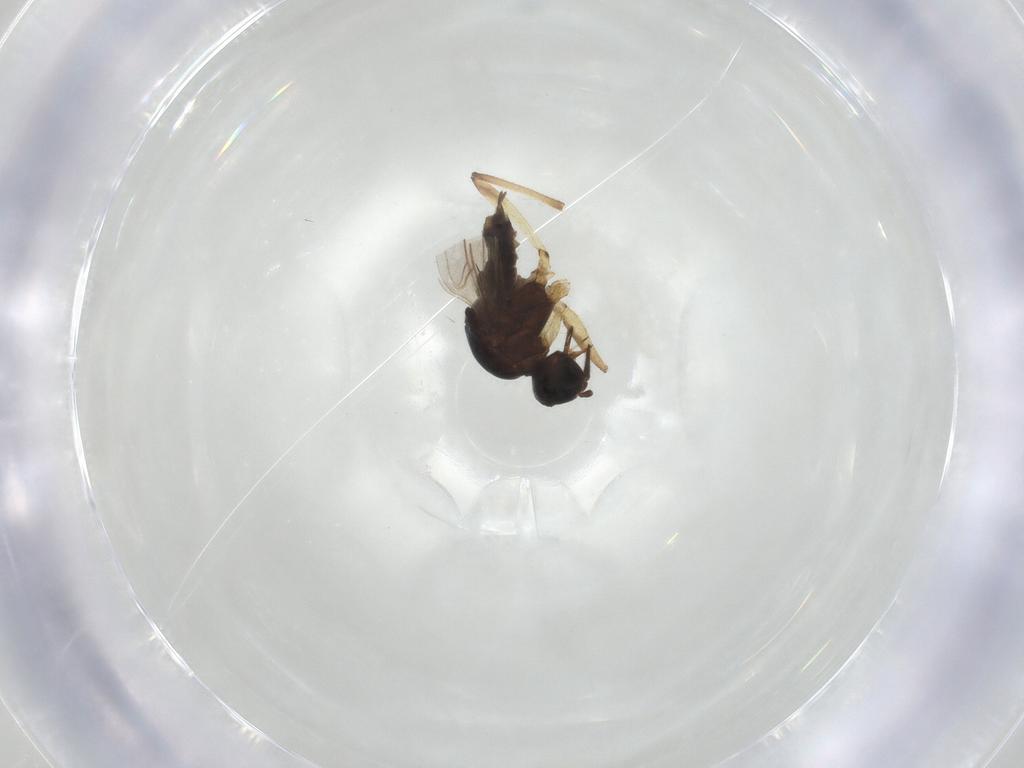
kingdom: Animalia
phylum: Arthropoda
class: Insecta
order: Diptera
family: Hybotidae
